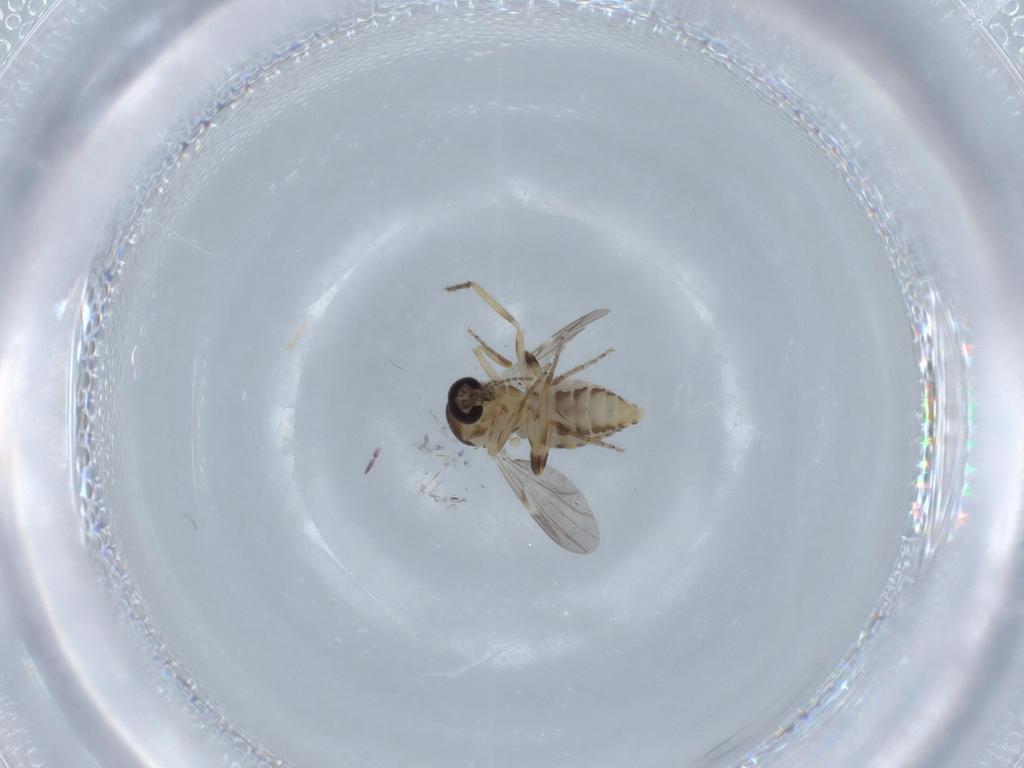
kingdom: Animalia
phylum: Arthropoda
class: Insecta
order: Diptera
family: Ceratopogonidae
